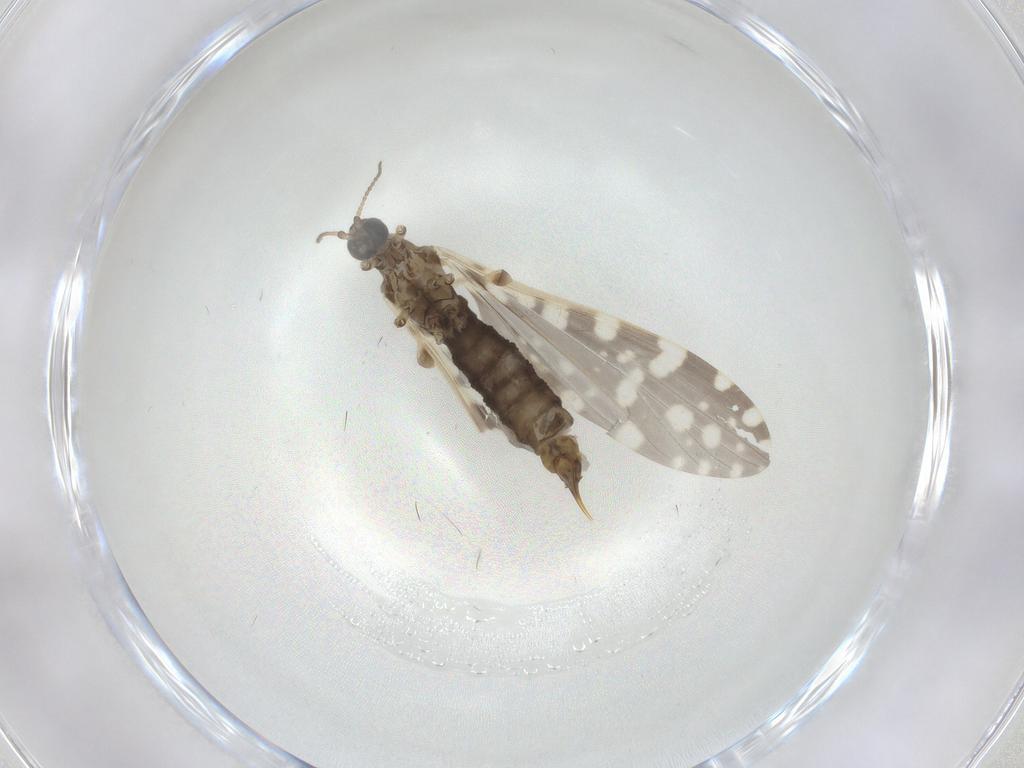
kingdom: Animalia
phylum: Arthropoda
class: Insecta
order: Diptera
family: Limoniidae
